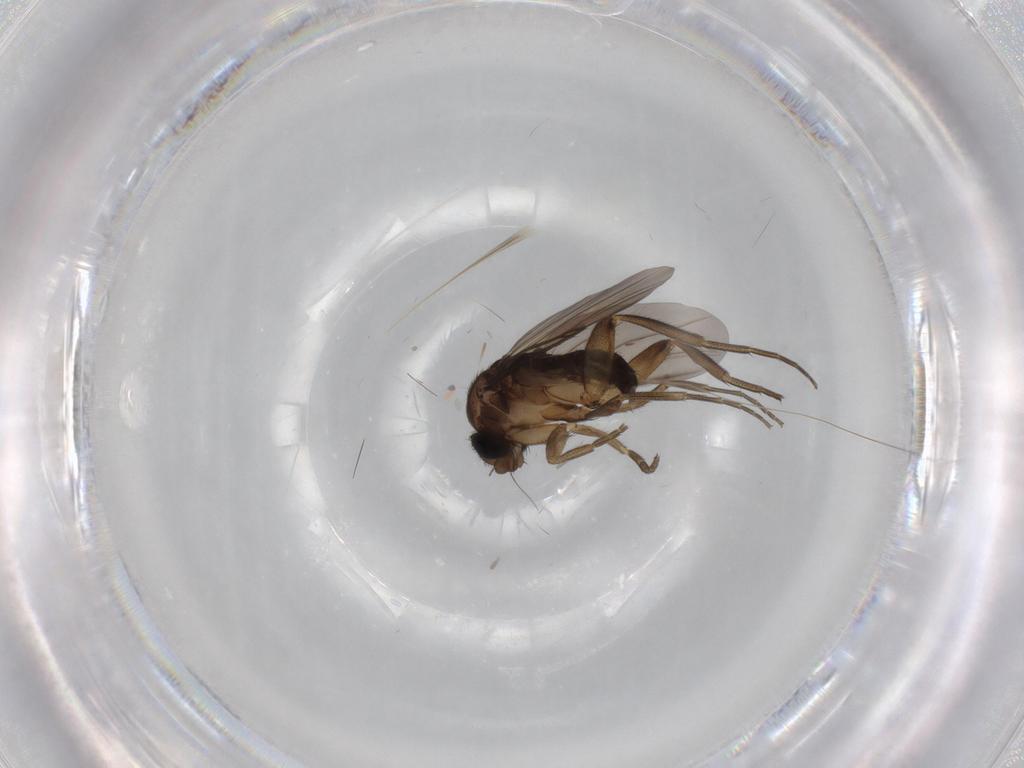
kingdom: Animalia
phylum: Arthropoda
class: Insecta
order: Diptera
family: Phoridae
